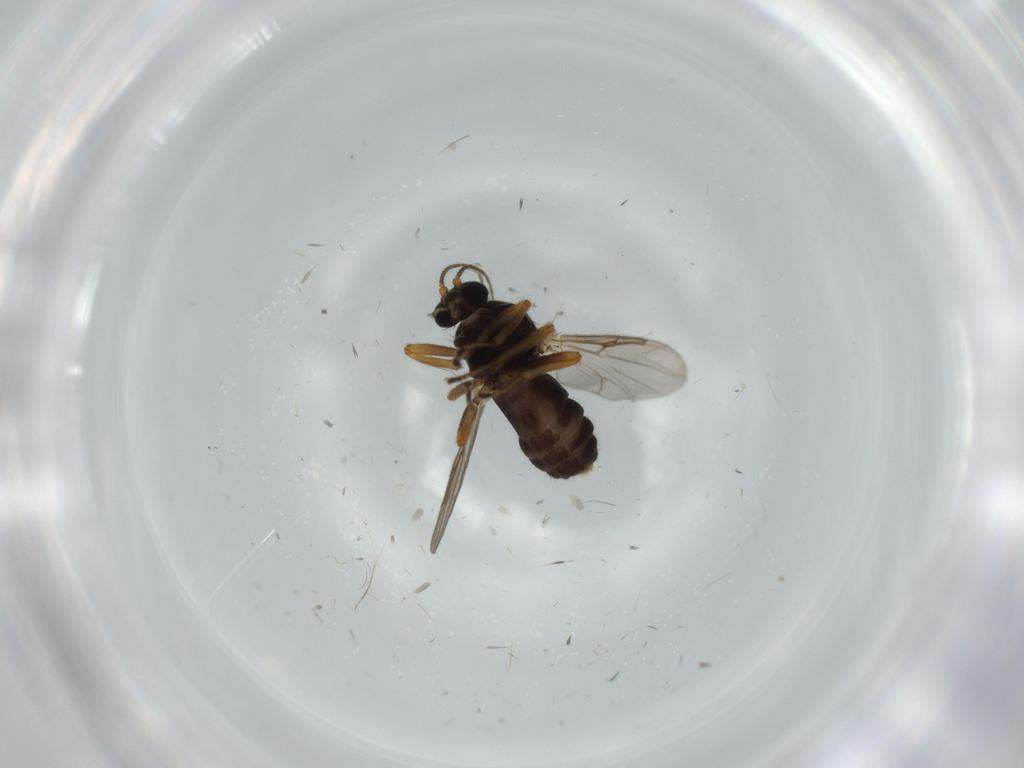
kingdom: Animalia
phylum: Arthropoda
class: Insecta
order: Diptera
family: Ceratopogonidae
